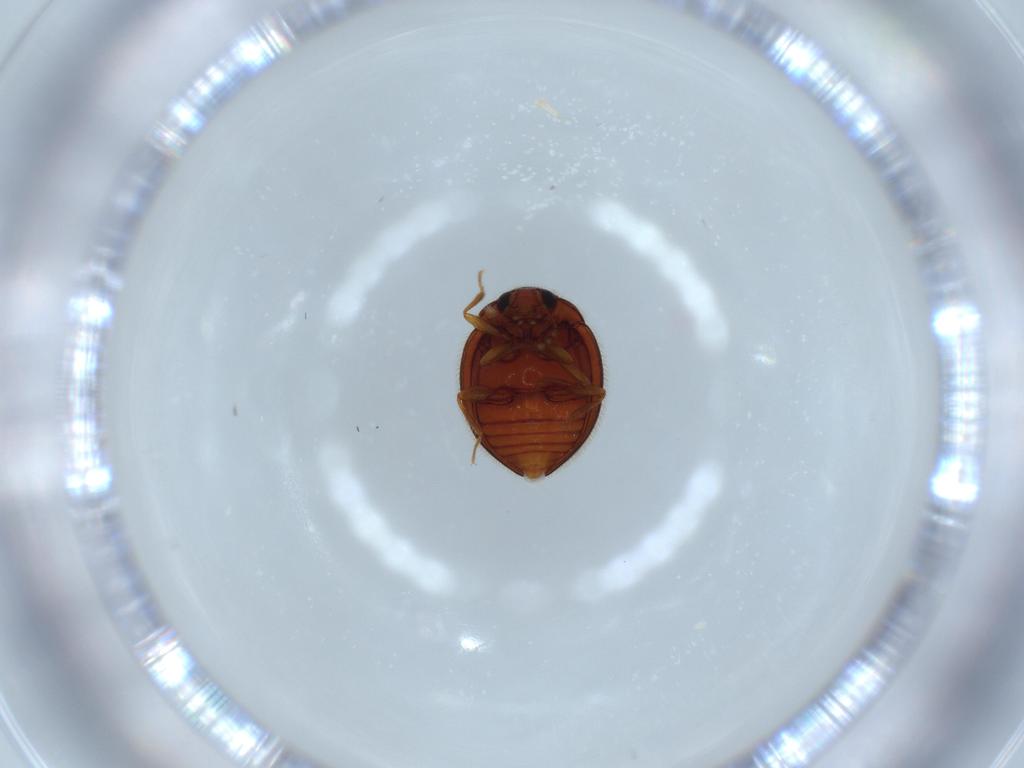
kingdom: Animalia
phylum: Arthropoda
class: Insecta
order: Coleoptera
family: Anamorphidae
